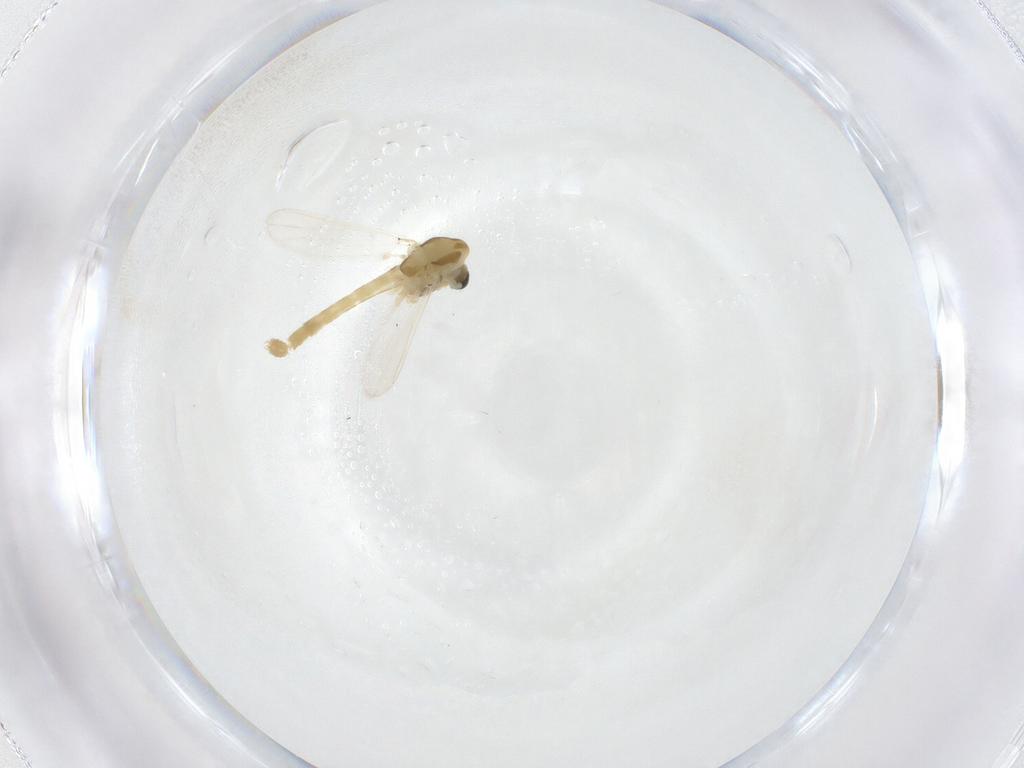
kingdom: Animalia
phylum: Arthropoda
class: Insecta
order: Diptera
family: Chironomidae
